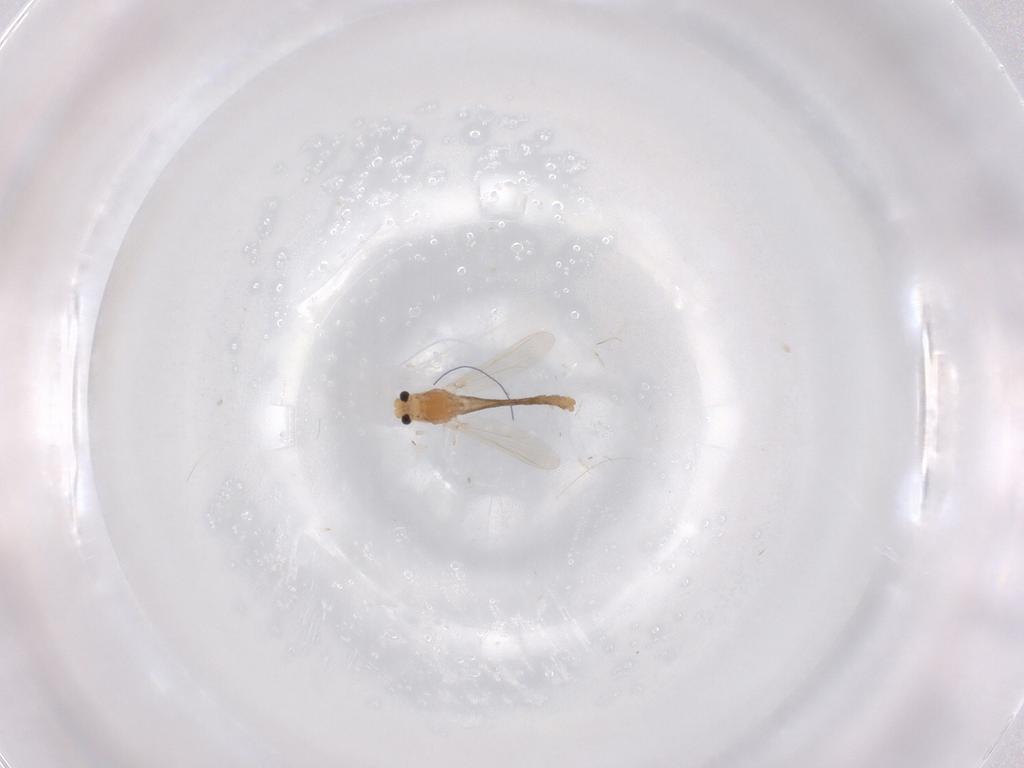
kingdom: Animalia
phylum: Arthropoda
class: Insecta
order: Diptera
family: Chironomidae
